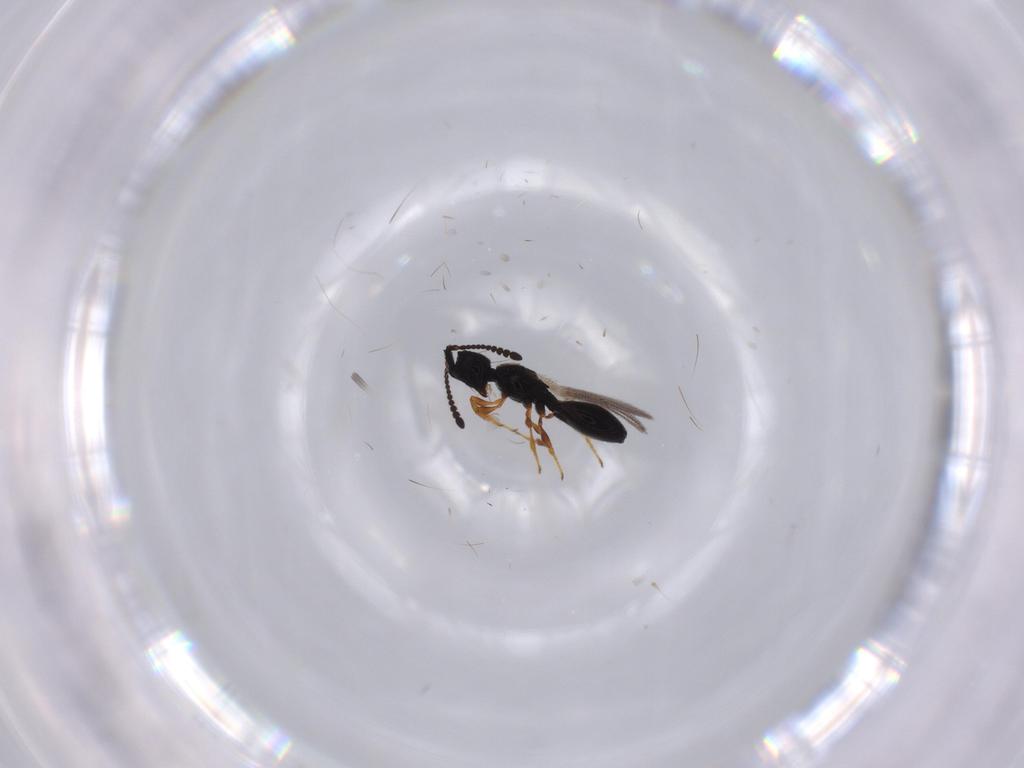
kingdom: Animalia
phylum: Arthropoda
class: Insecta
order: Hymenoptera
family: Diapriidae
